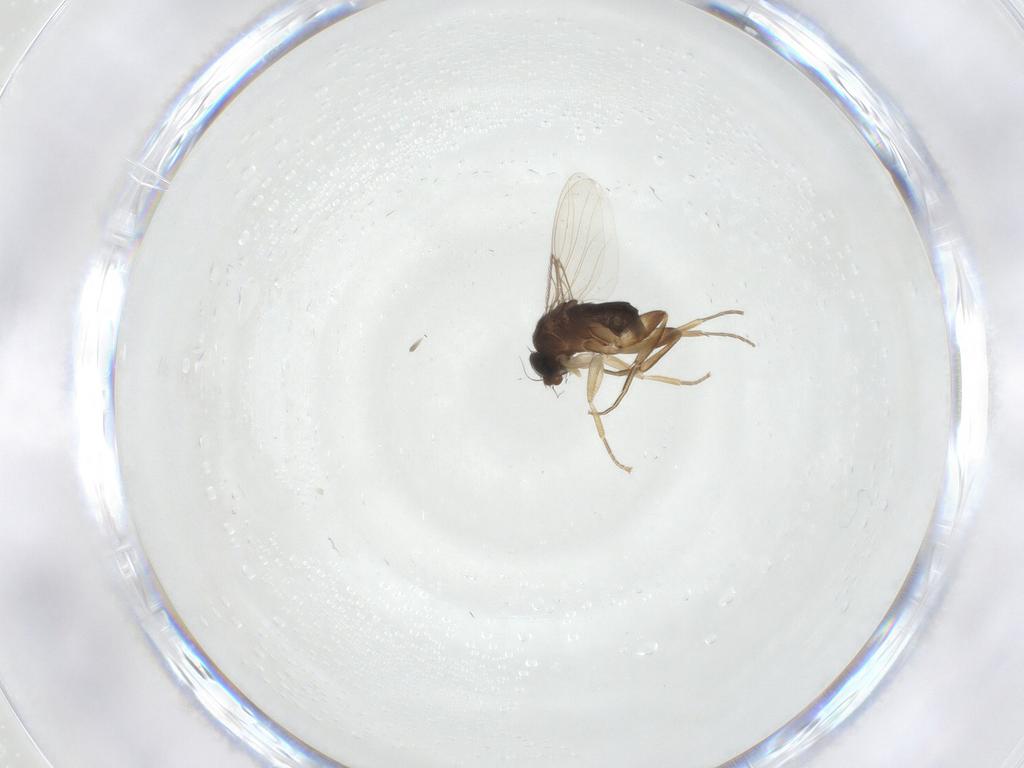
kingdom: Animalia
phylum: Arthropoda
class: Insecta
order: Diptera
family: Phoridae
